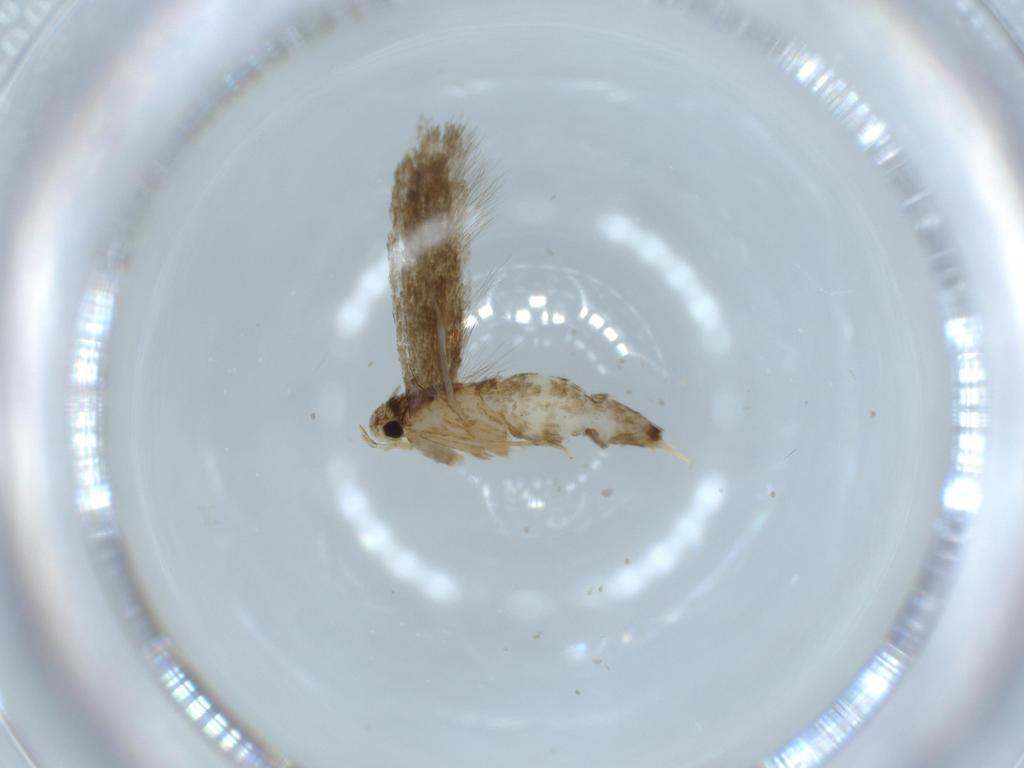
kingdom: Animalia
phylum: Arthropoda
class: Insecta
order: Lepidoptera
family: Tineidae
